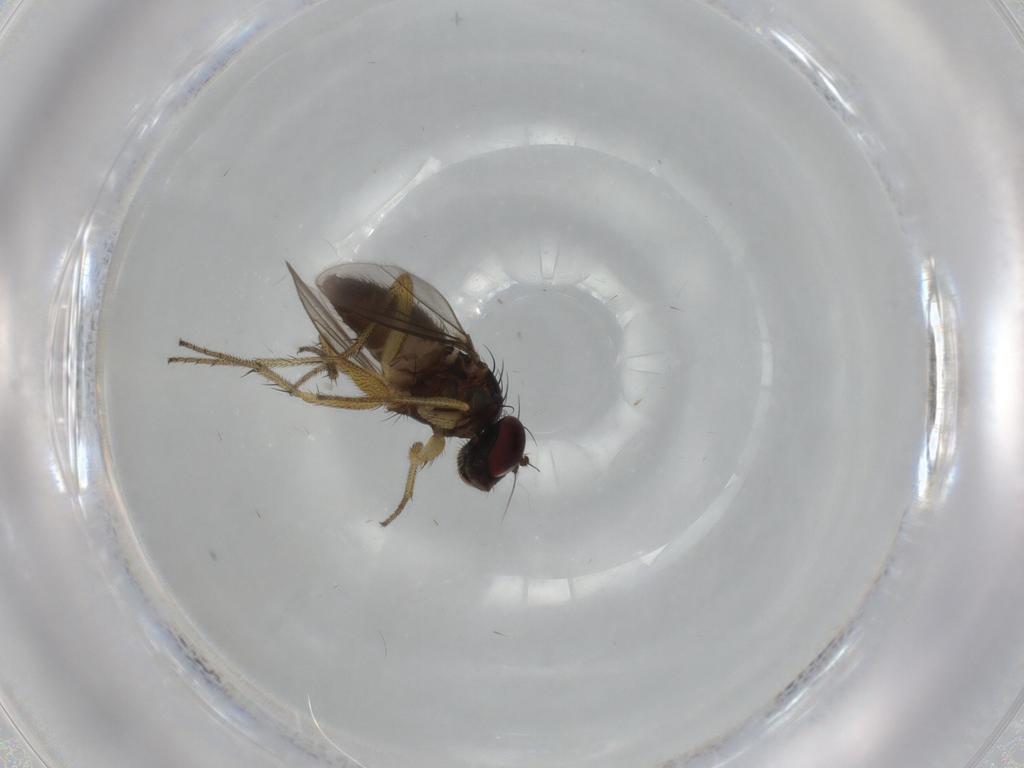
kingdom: Animalia
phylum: Arthropoda
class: Insecta
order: Diptera
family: Dolichopodidae
